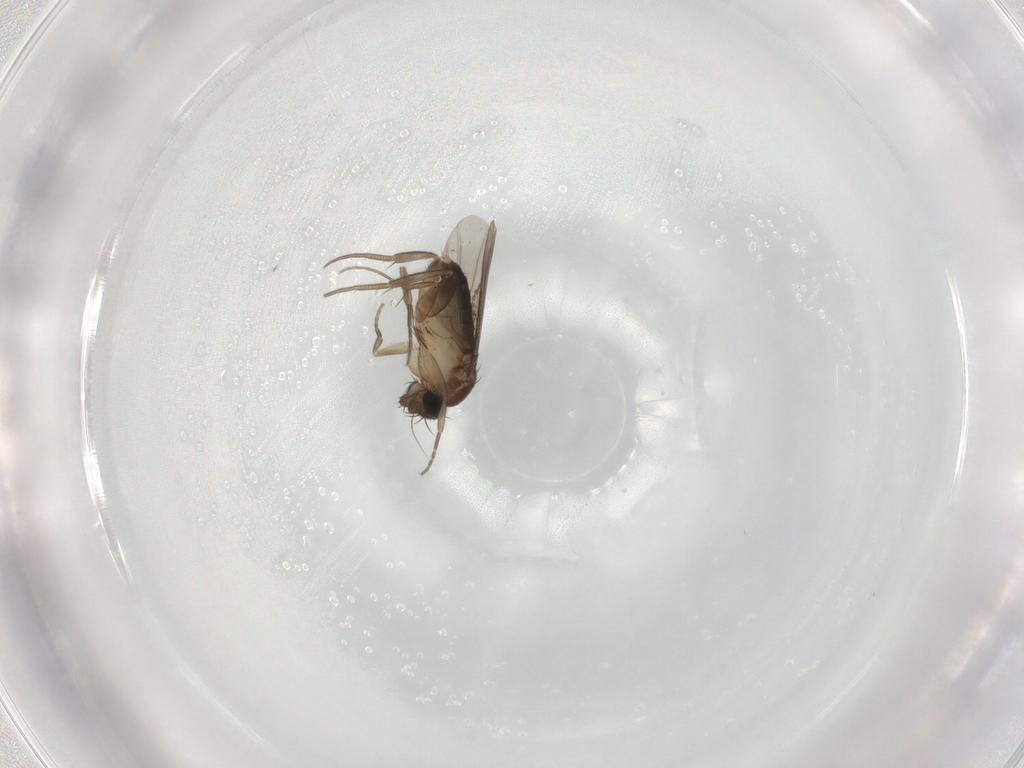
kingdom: Animalia
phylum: Arthropoda
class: Insecta
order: Diptera
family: Phoridae
